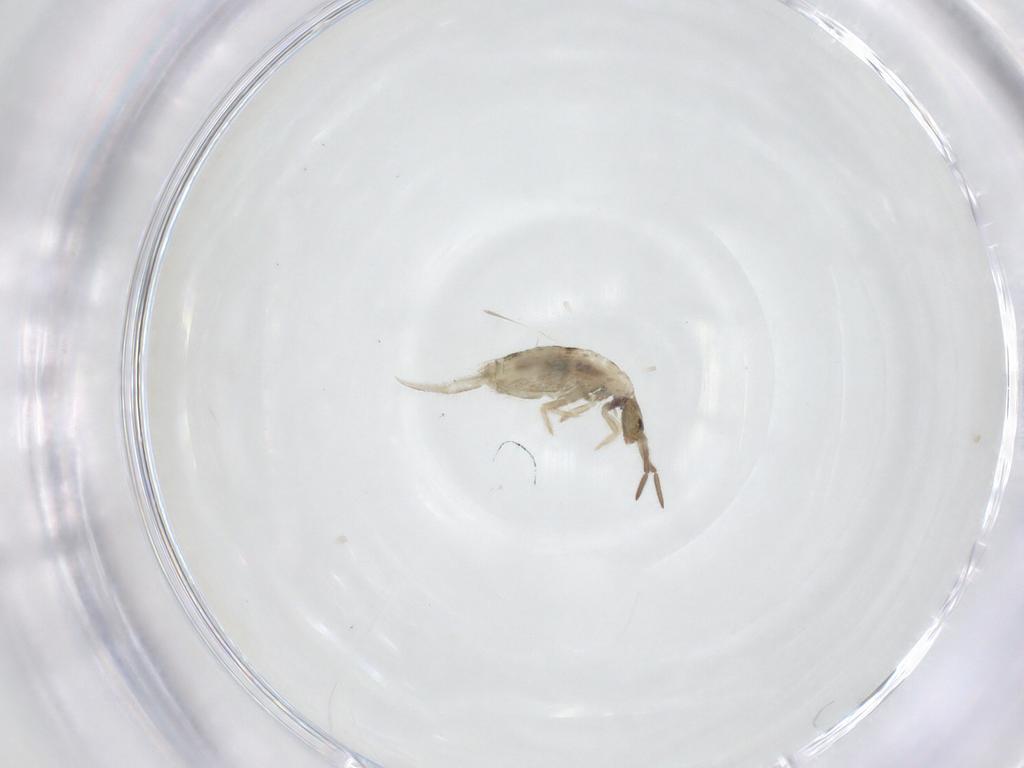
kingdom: Animalia
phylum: Arthropoda
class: Collembola
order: Entomobryomorpha
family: Entomobryidae
